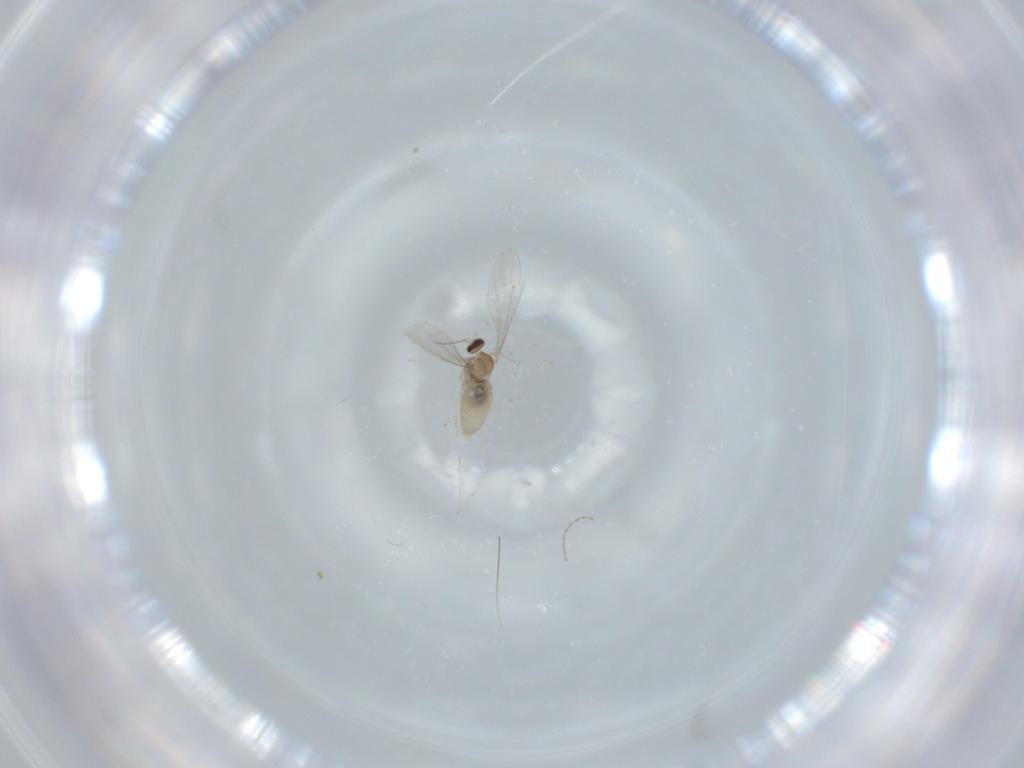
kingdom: Animalia
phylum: Arthropoda
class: Insecta
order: Diptera
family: Cecidomyiidae
